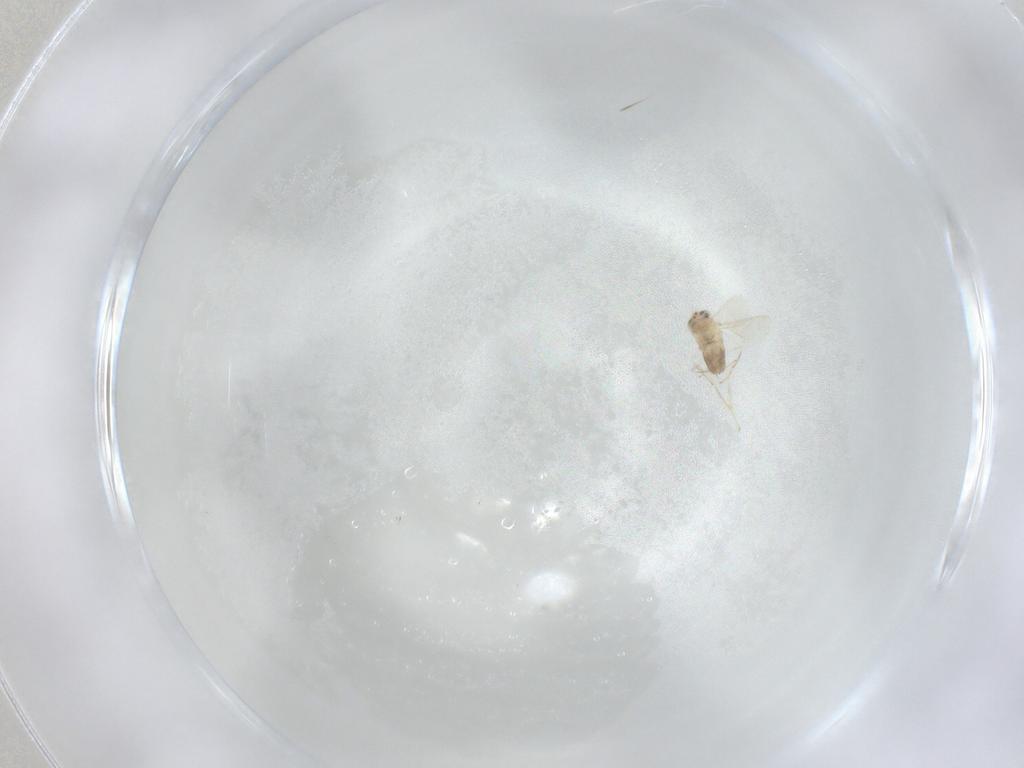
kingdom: Animalia
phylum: Arthropoda
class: Insecta
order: Hymenoptera
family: Aphelinidae
